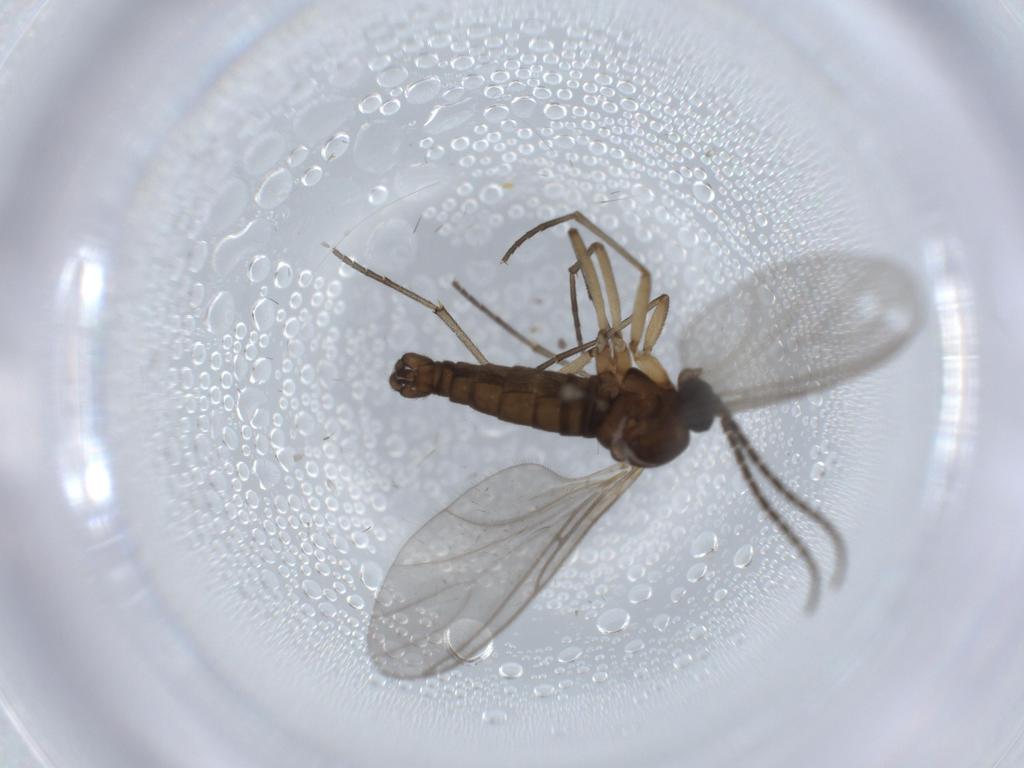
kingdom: Animalia
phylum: Arthropoda
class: Insecta
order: Diptera
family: Sciaridae
